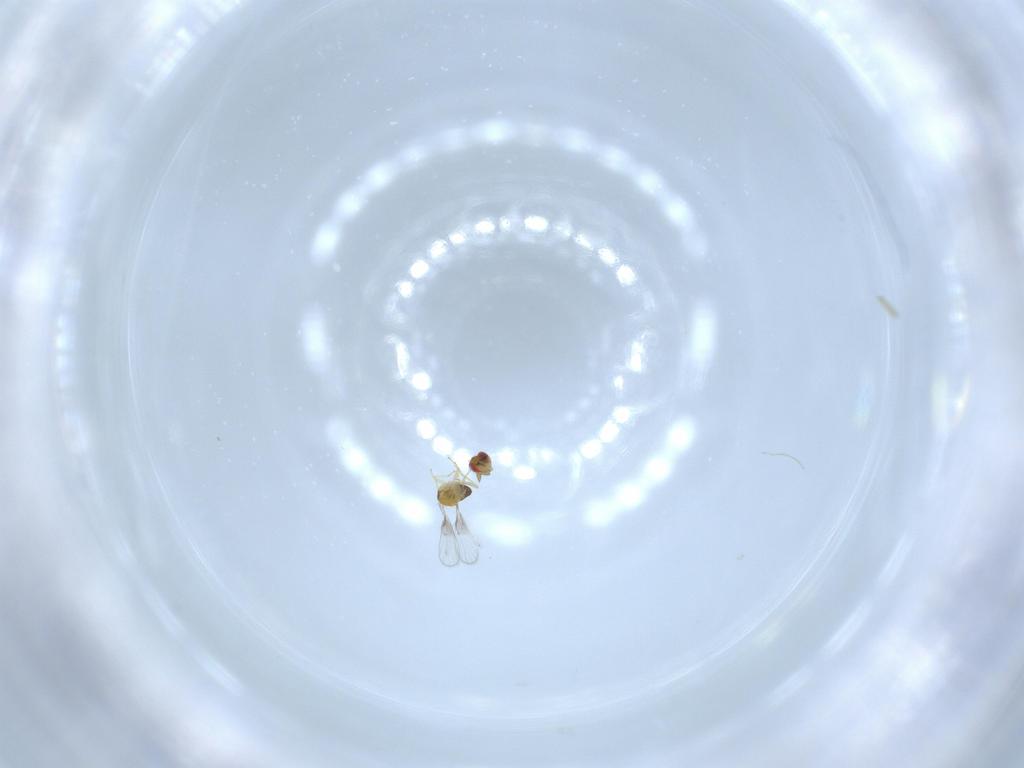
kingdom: Animalia
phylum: Arthropoda
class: Insecta
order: Hymenoptera
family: Trichogrammatidae
